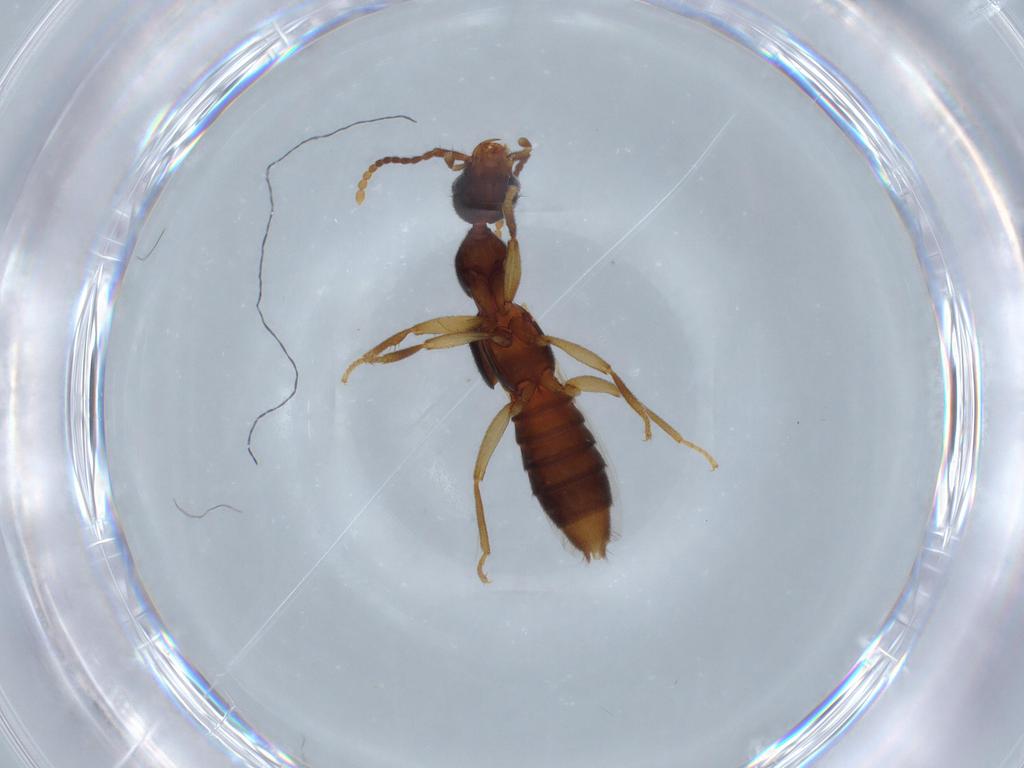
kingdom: Animalia
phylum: Arthropoda
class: Insecta
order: Coleoptera
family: Staphylinidae
